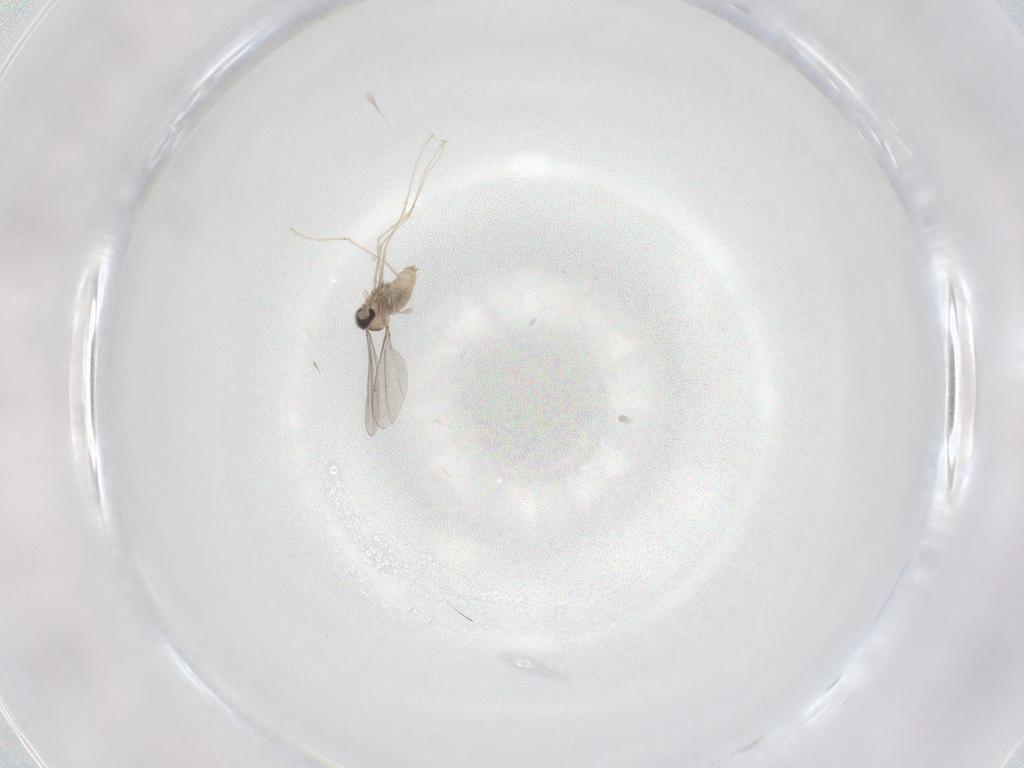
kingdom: Animalia
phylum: Arthropoda
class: Insecta
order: Diptera
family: Cecidomyiidae
